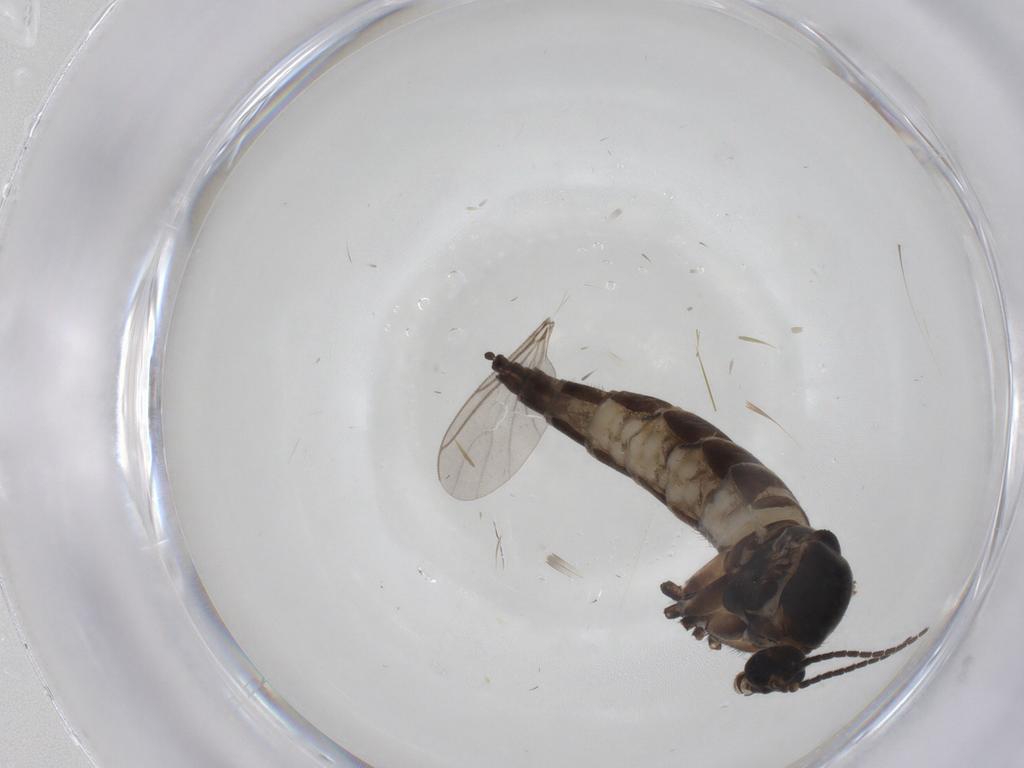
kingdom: Animalia
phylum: Arthropoda
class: Insecta
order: Diptera
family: Sciaridae
